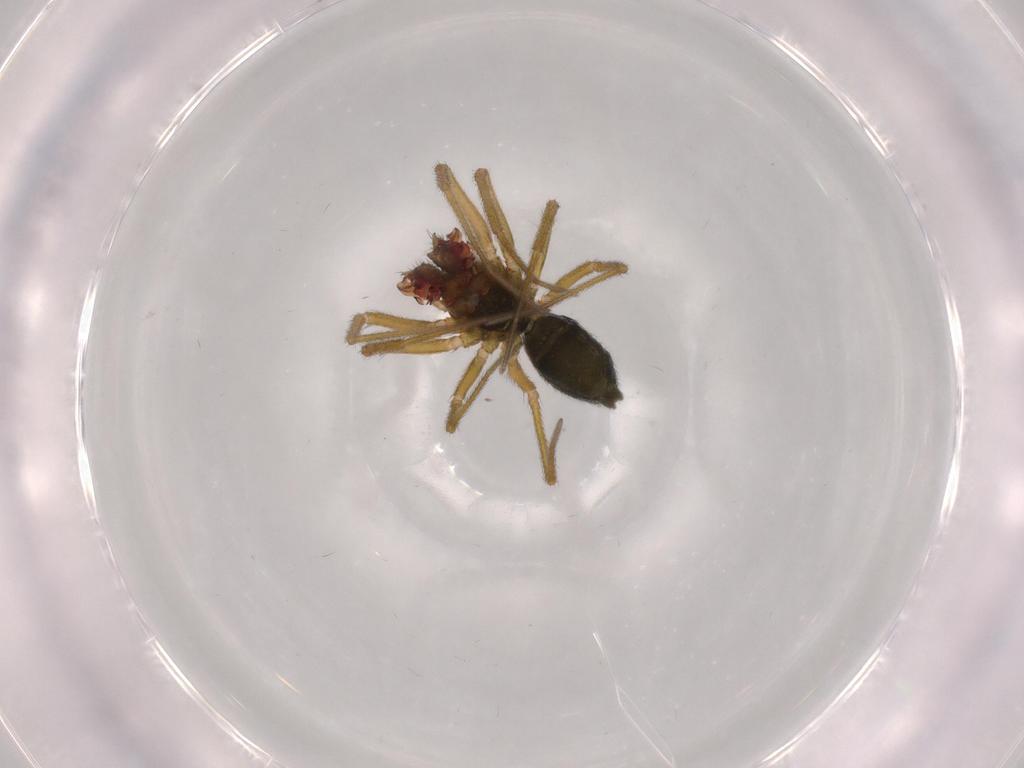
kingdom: Animalia
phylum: Arthropoda
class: Arachnida
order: Araneae
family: Linyphiidae
